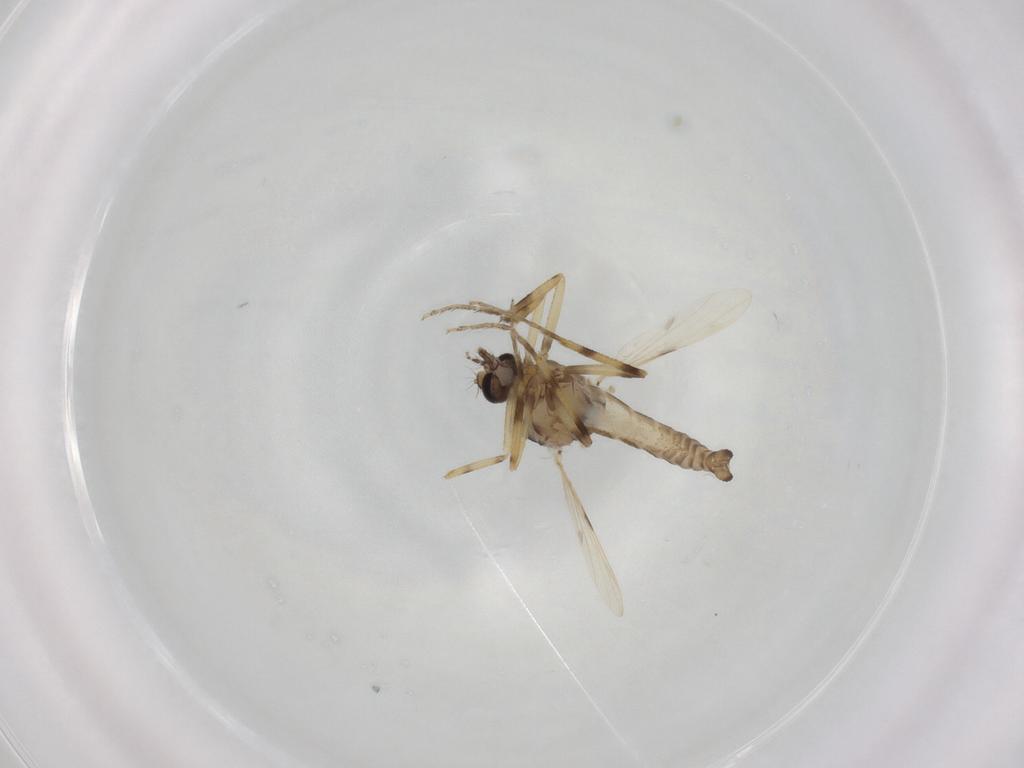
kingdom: Animalia
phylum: Arthropoda
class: Insecta
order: Diptera
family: Ceratopogonidae
